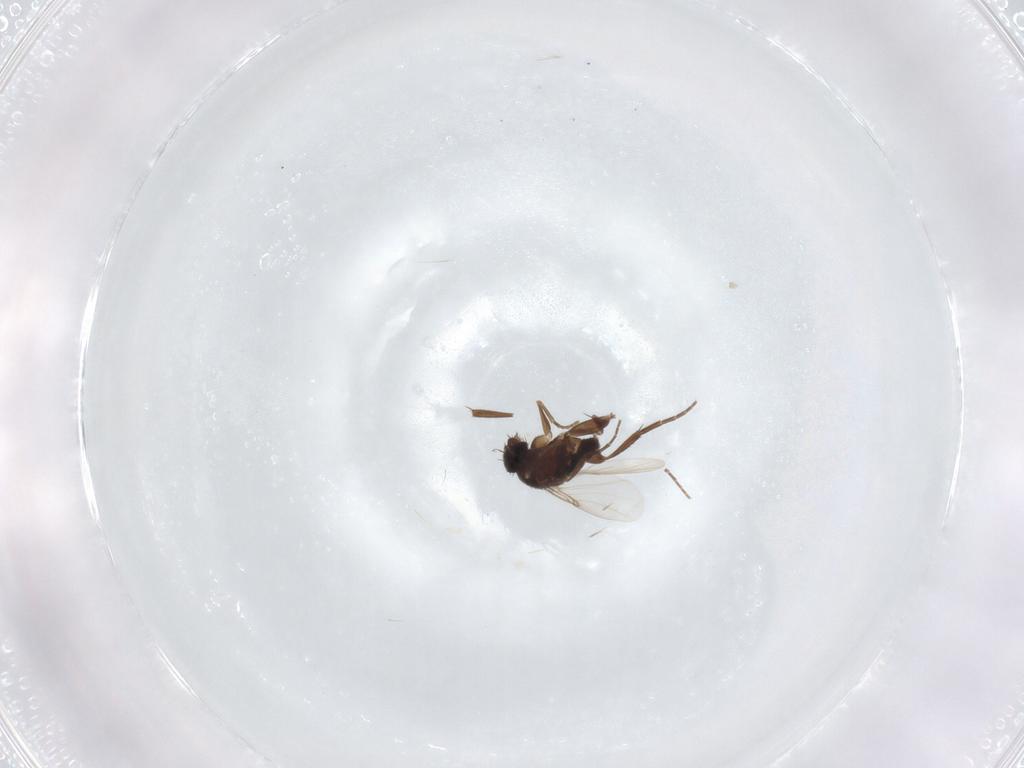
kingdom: Animalia
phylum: Arthropoda
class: Insecta
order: Diptera
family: Phoridae
